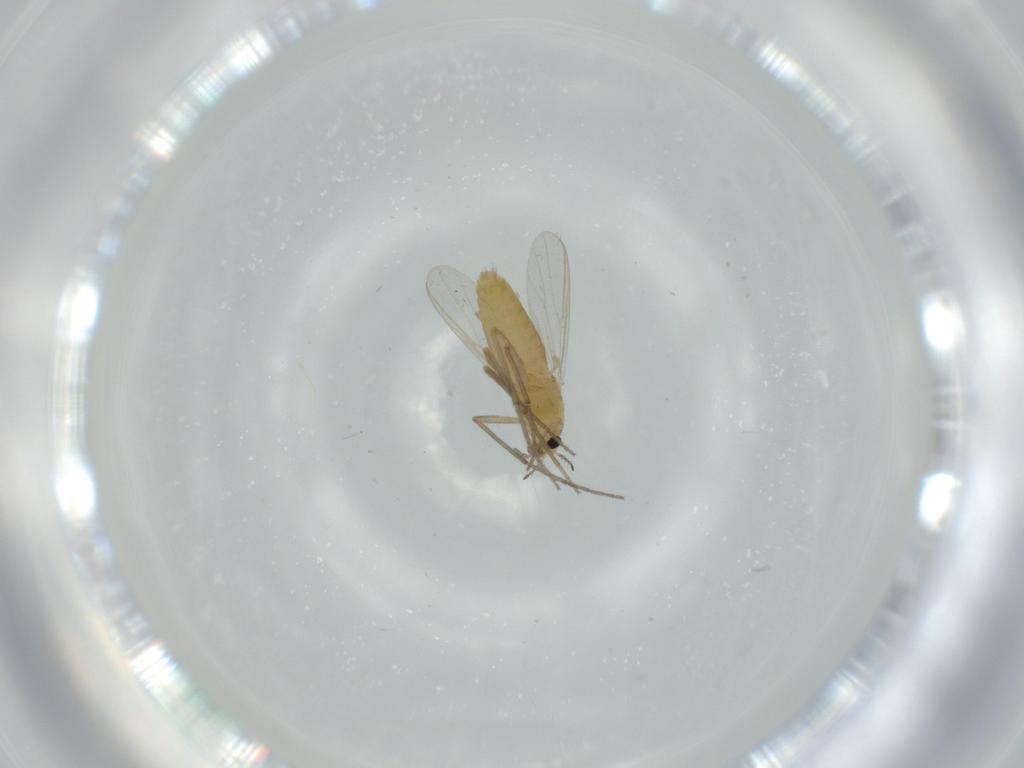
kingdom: Animalia
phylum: Arthropoda
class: Insecta
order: Diptera
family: Chironomidae
